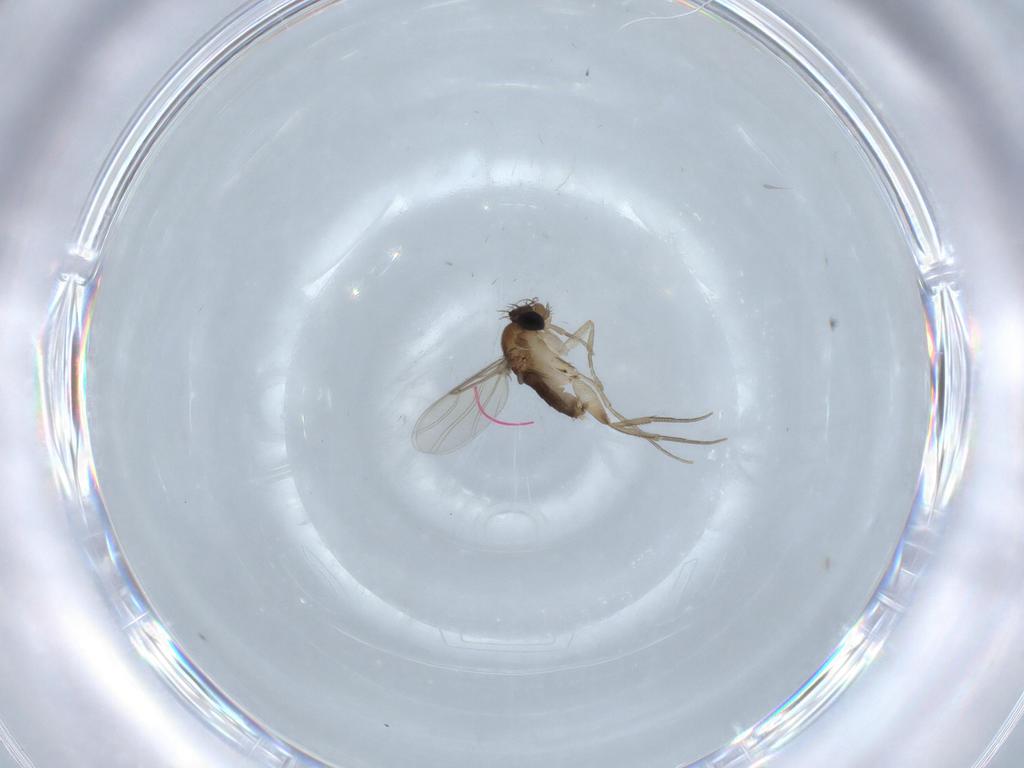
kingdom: Animalia
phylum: Arthropoda
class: Insecta
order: Diptera
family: Phoridae
